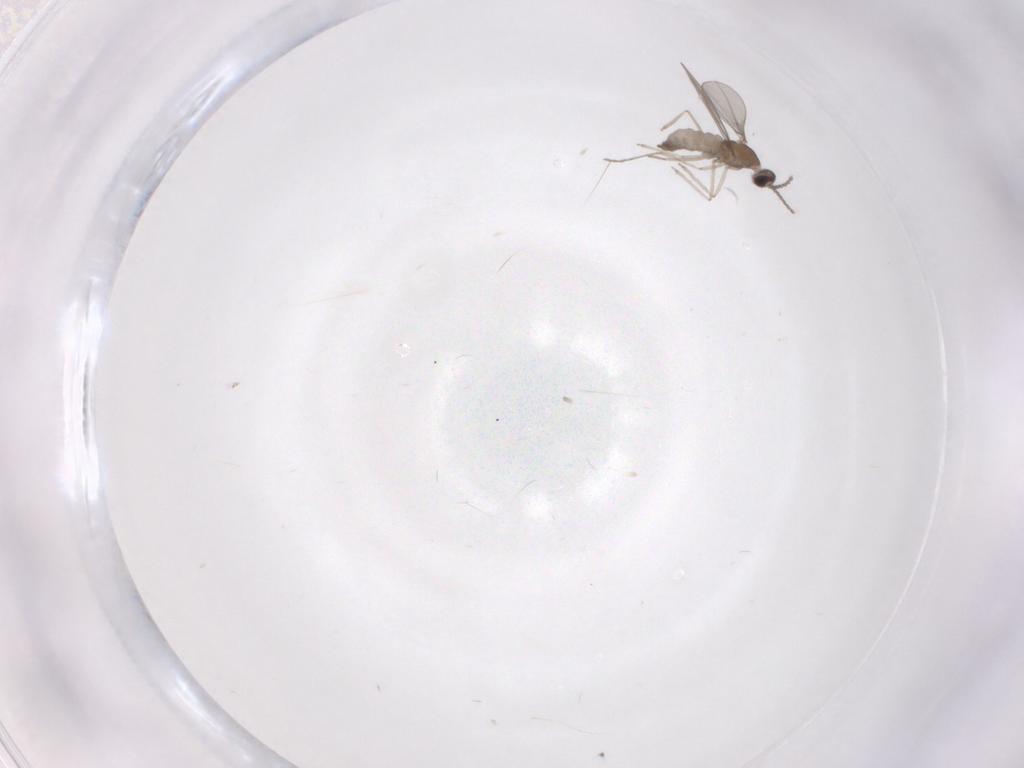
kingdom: Animalia
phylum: Arthropoda
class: Insecta
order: Diptera
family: Cecidomyiidae
